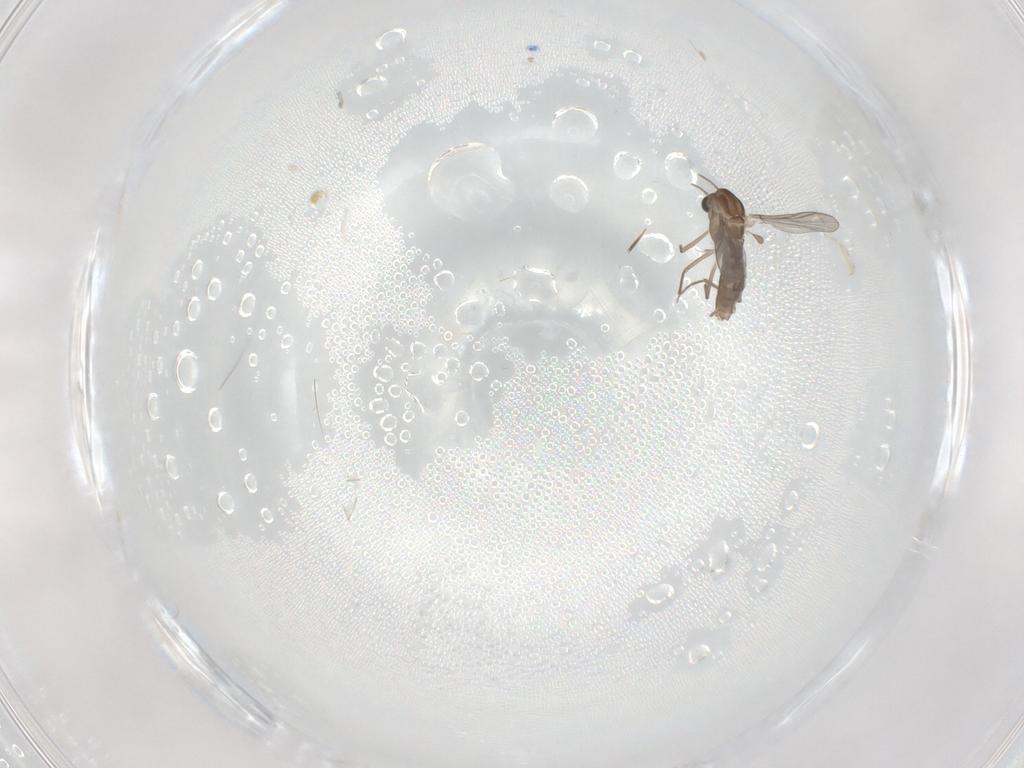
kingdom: Animalia
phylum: Arthropoda
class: Insecta
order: Diptera
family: Chironomidae
